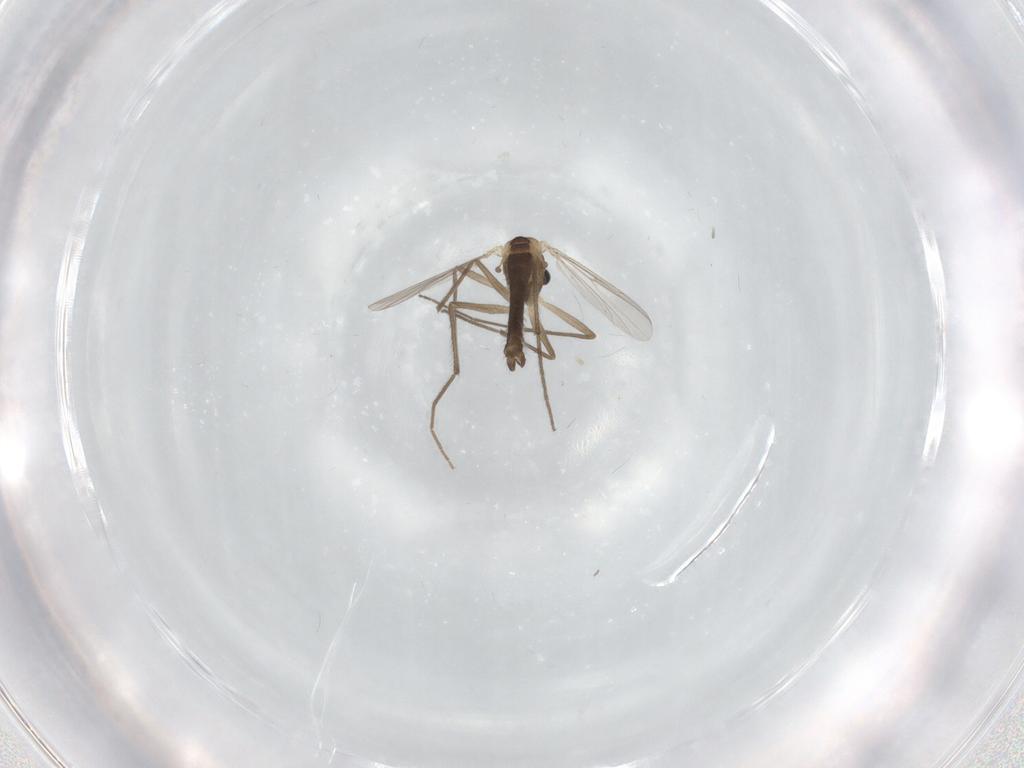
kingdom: Animalia
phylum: Arthropoda
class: Insecta
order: Diptera
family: Chironomidae
